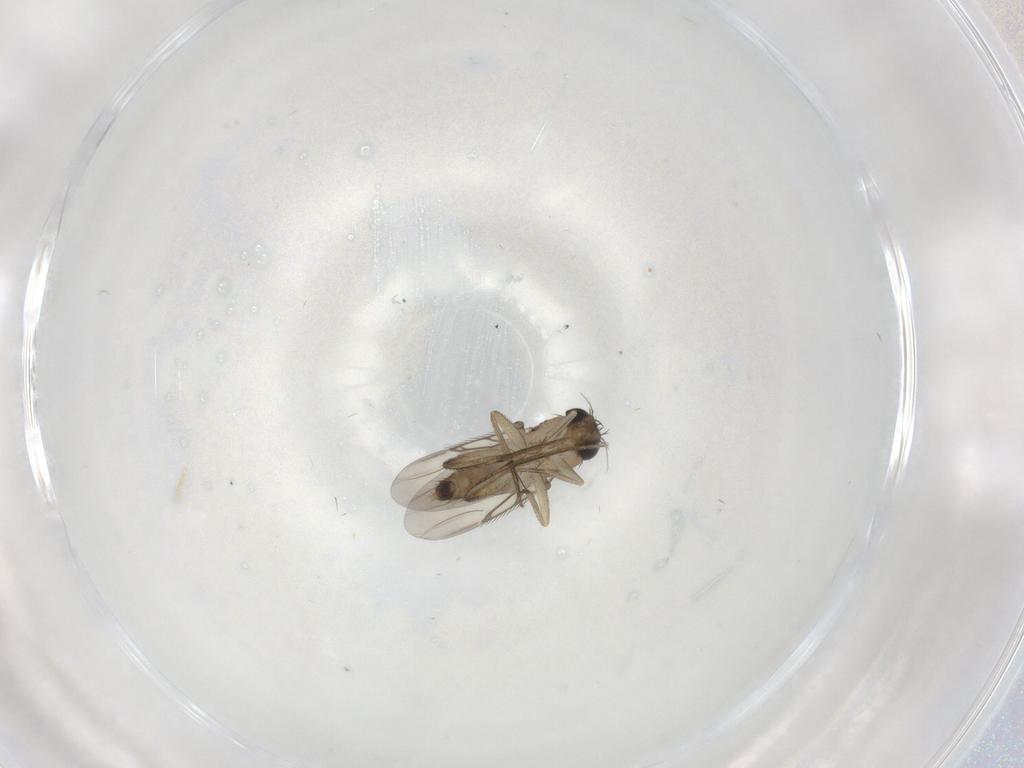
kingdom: Animalia
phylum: Arthropoda
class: Insecta
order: Diptera
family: Phoridae
